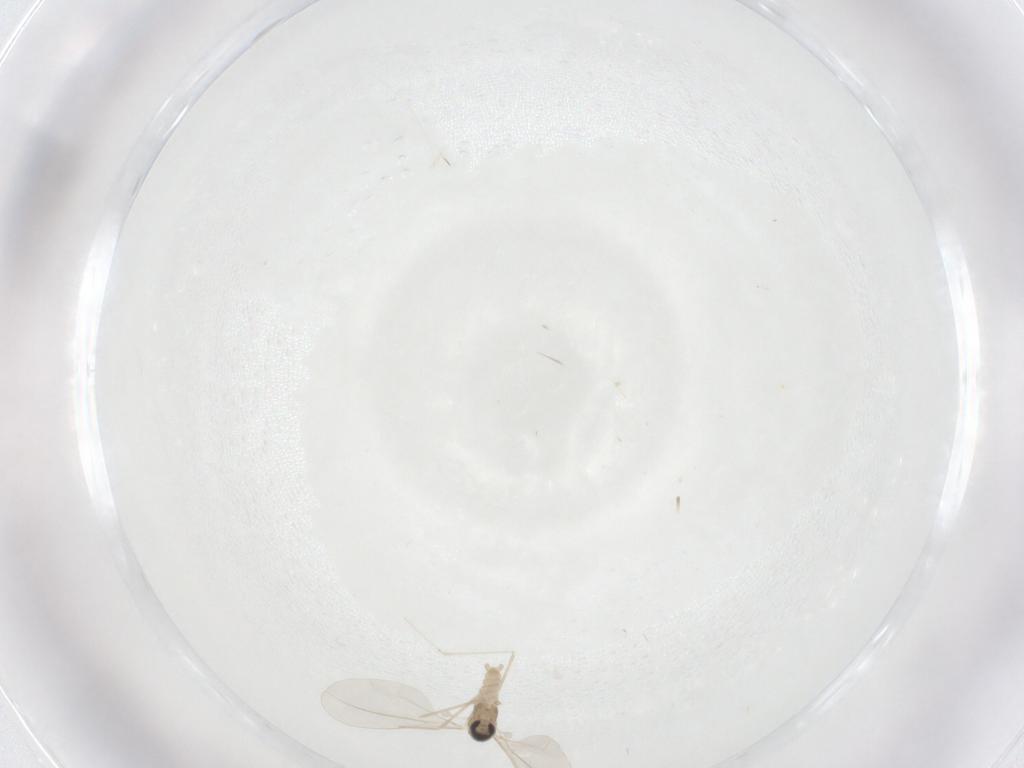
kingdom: Animalia
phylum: Arthropoda
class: Insecta
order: Diptera
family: Cecidomyiidae
